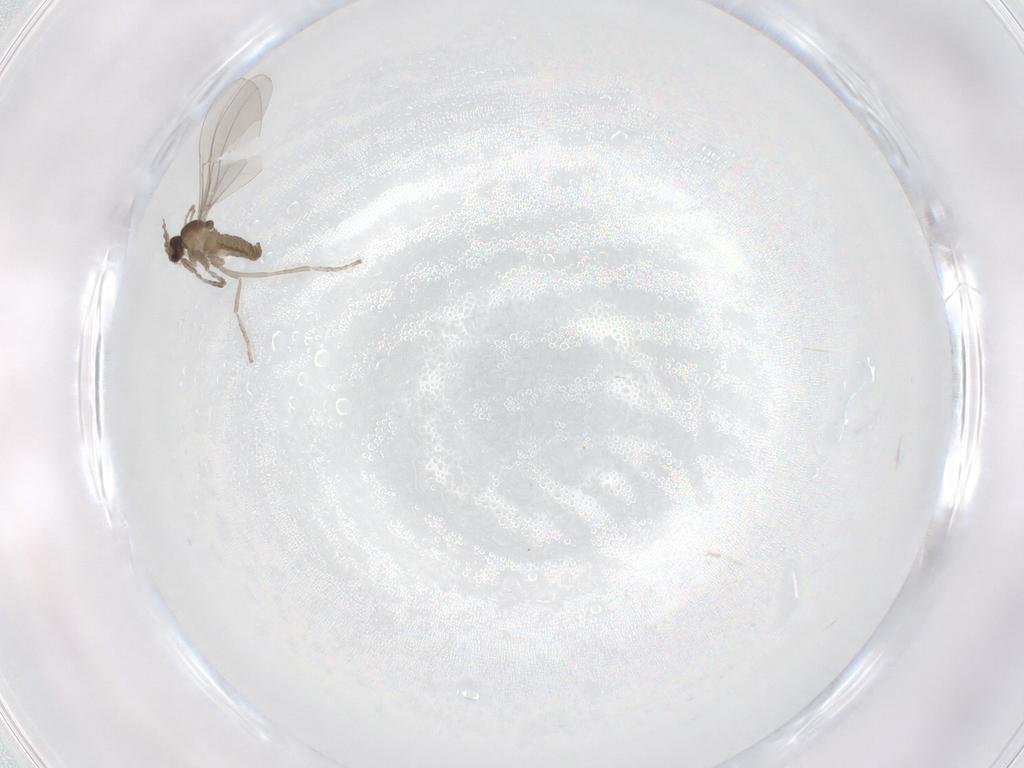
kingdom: Animalia
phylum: Arthropoda
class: Insecta
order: Diptera
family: Cecidomyiidae
